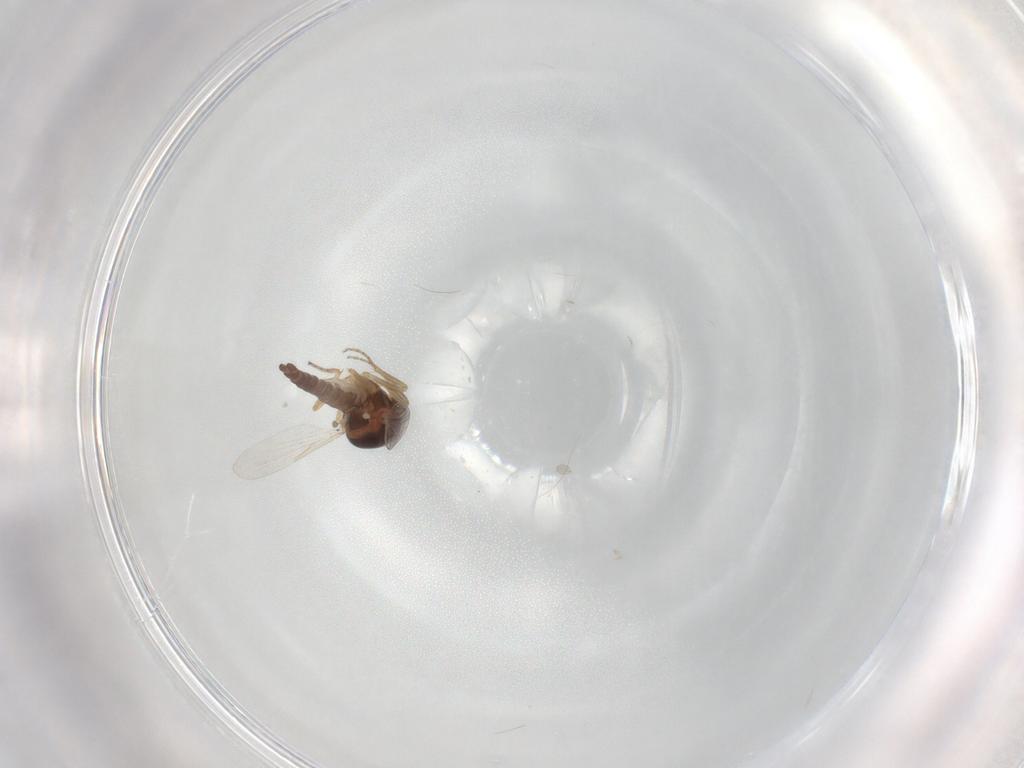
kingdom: Animalia
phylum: Arthropoda
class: Insecta
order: Diptera
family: Ceratopogonidae
